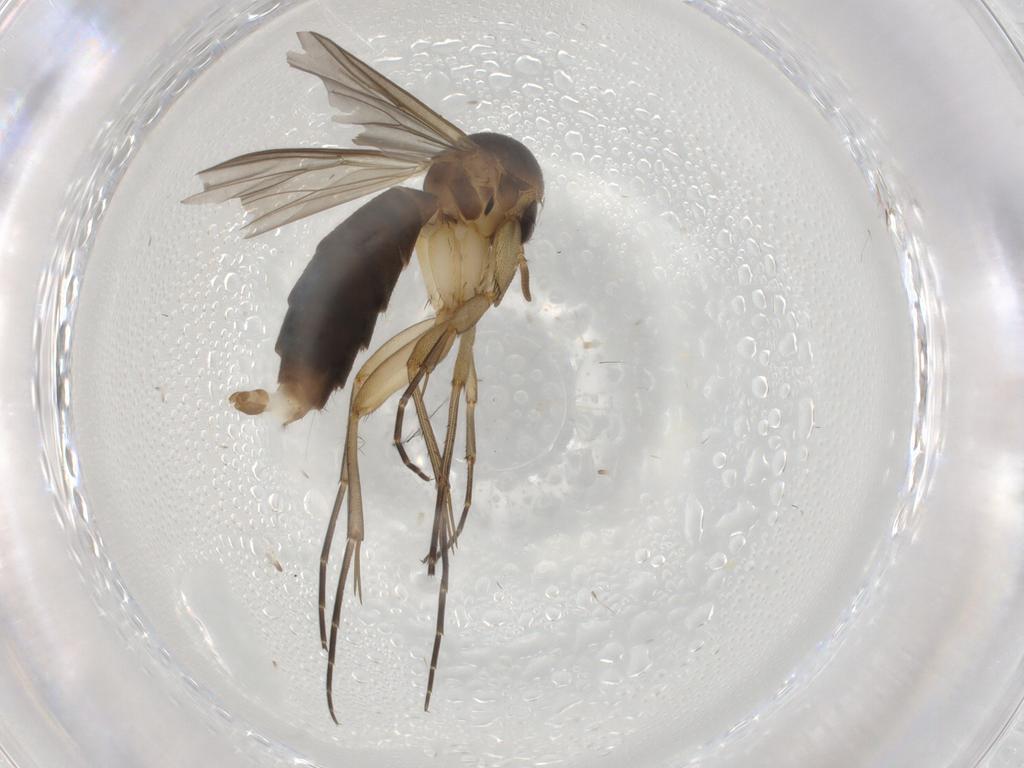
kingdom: Animalia
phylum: Arthropoda
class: Insecta
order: Diptera
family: Mycetophilidae
